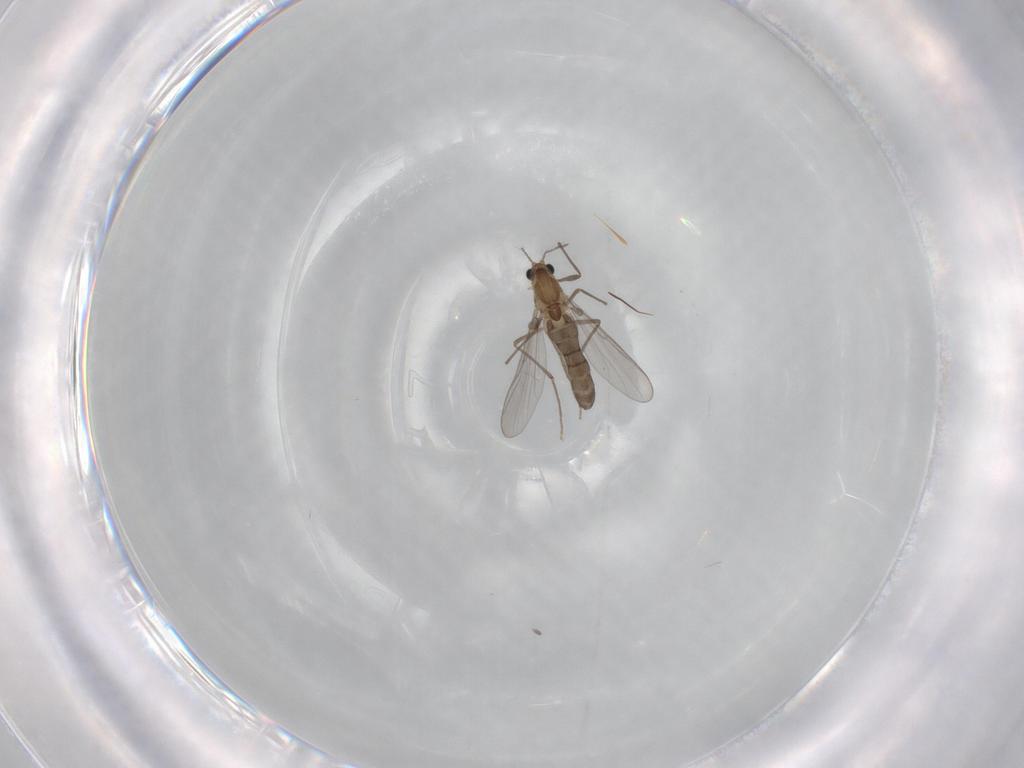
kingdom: Animalia
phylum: Arthropoda
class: Insecta
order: Diptera
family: Chironomidae
